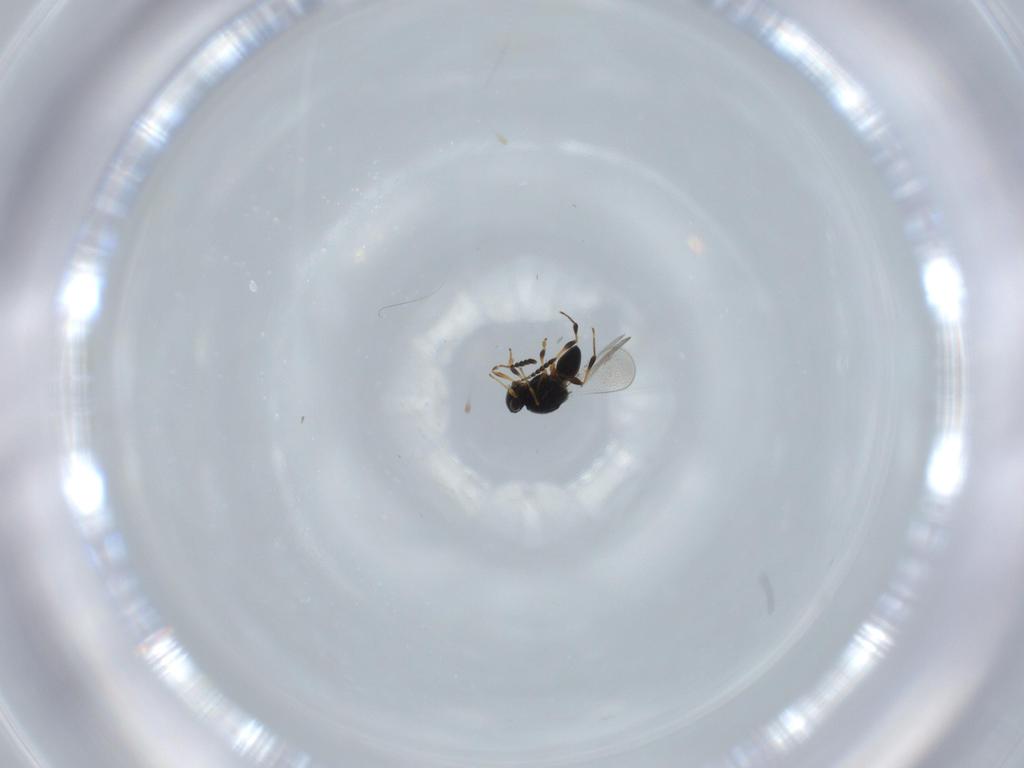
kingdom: Animalia
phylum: Arthropoda
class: Insecta
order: Hymenoptera
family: Platygastridae
